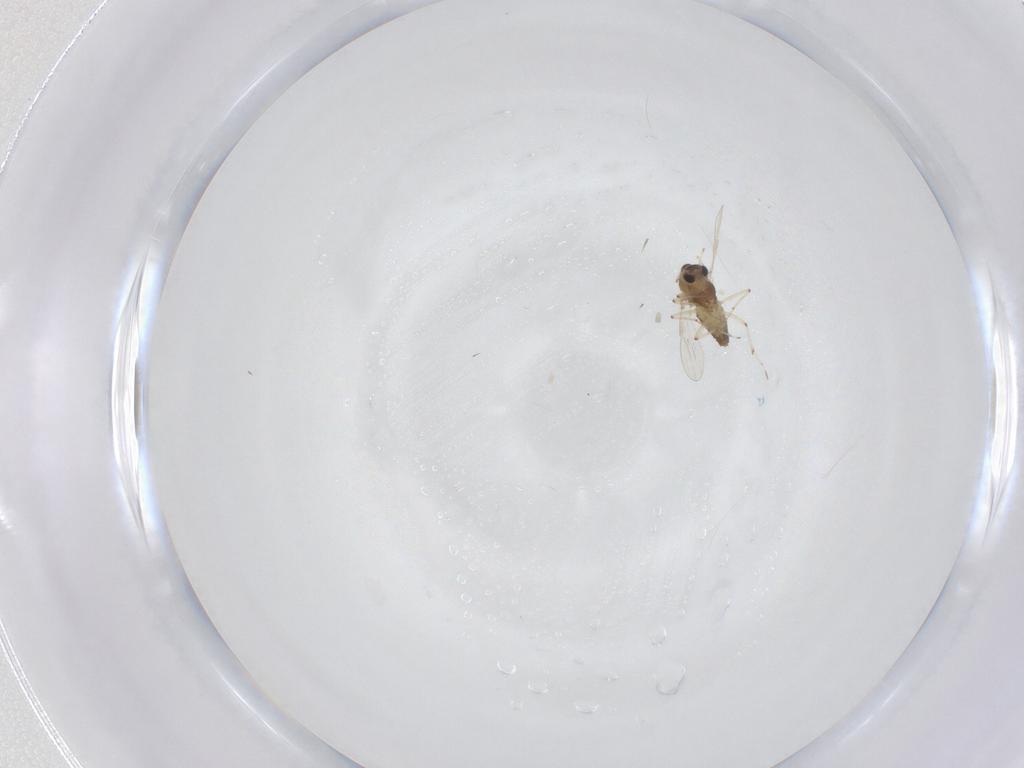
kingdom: Animalia
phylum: Arthropoda
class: Insecta
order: Diptera
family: Chironomidae
